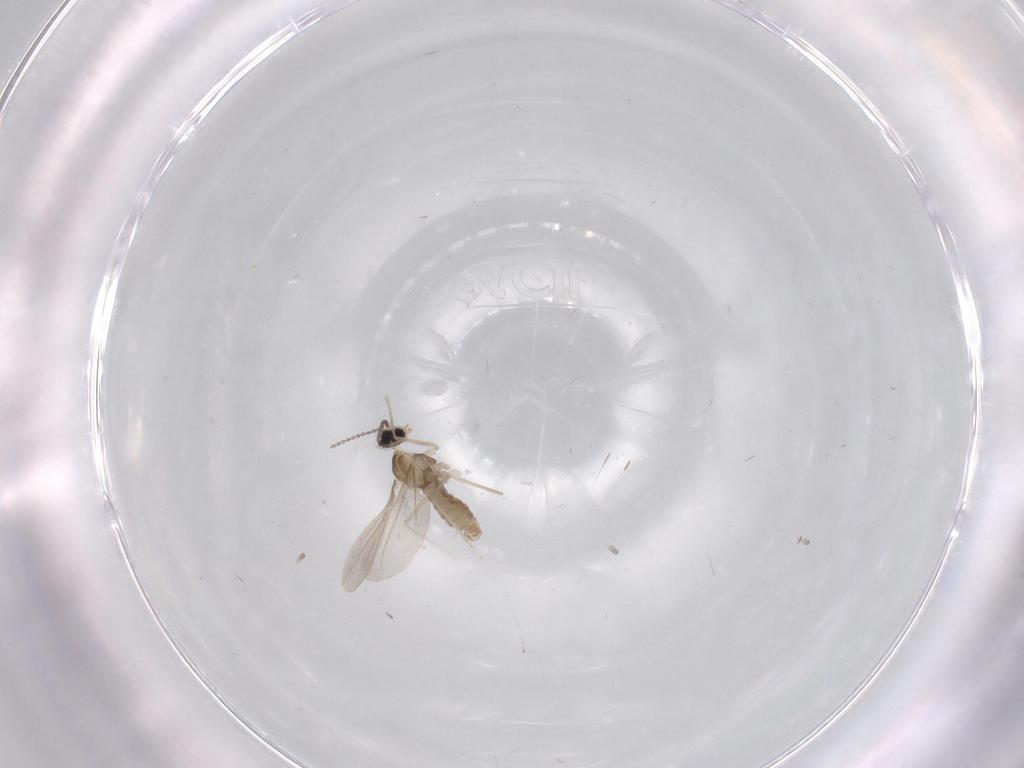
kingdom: Animalia
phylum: Arthropoda
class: Insecta
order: Diptera
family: Cecidomyiidae
